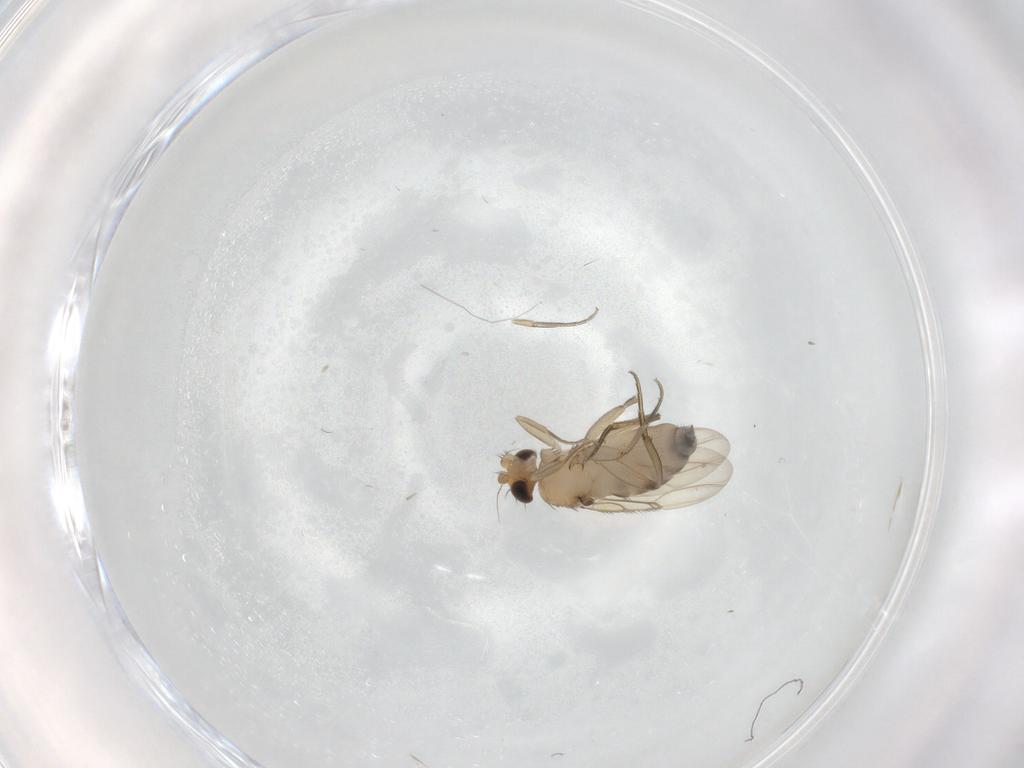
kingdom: Animalia
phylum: Arthropoda
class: Insecta
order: Diptera
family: Phoridae
